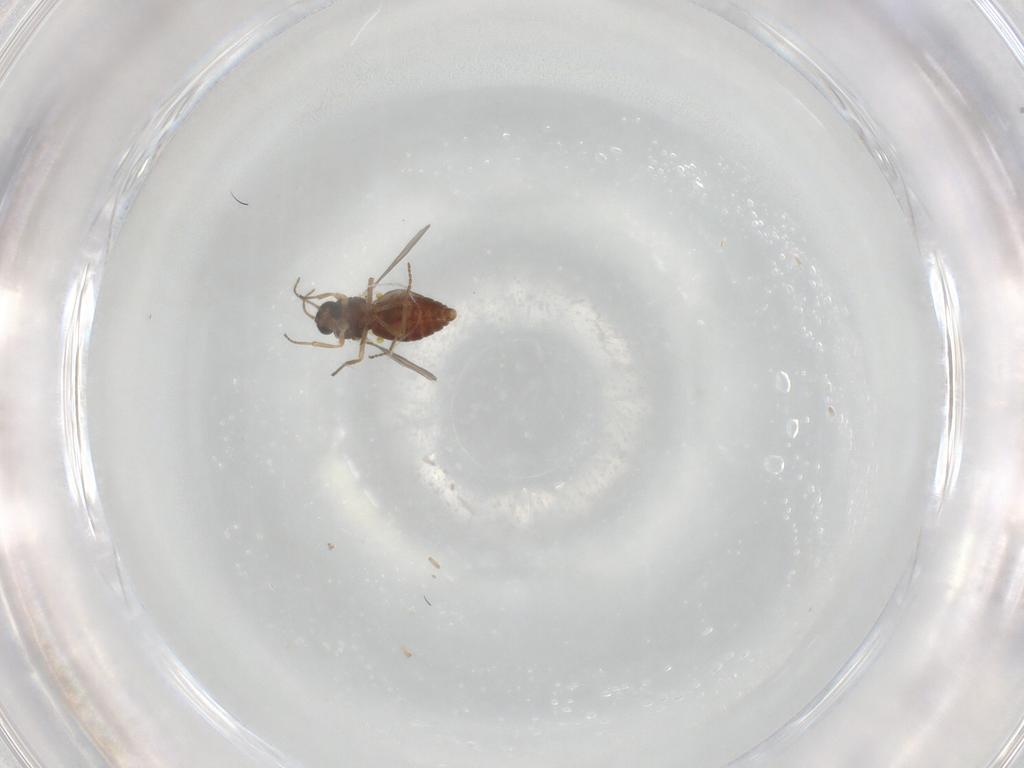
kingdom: Animalia
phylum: Arthropoda
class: Insecta
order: Diptera
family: Ceratopogonidae
